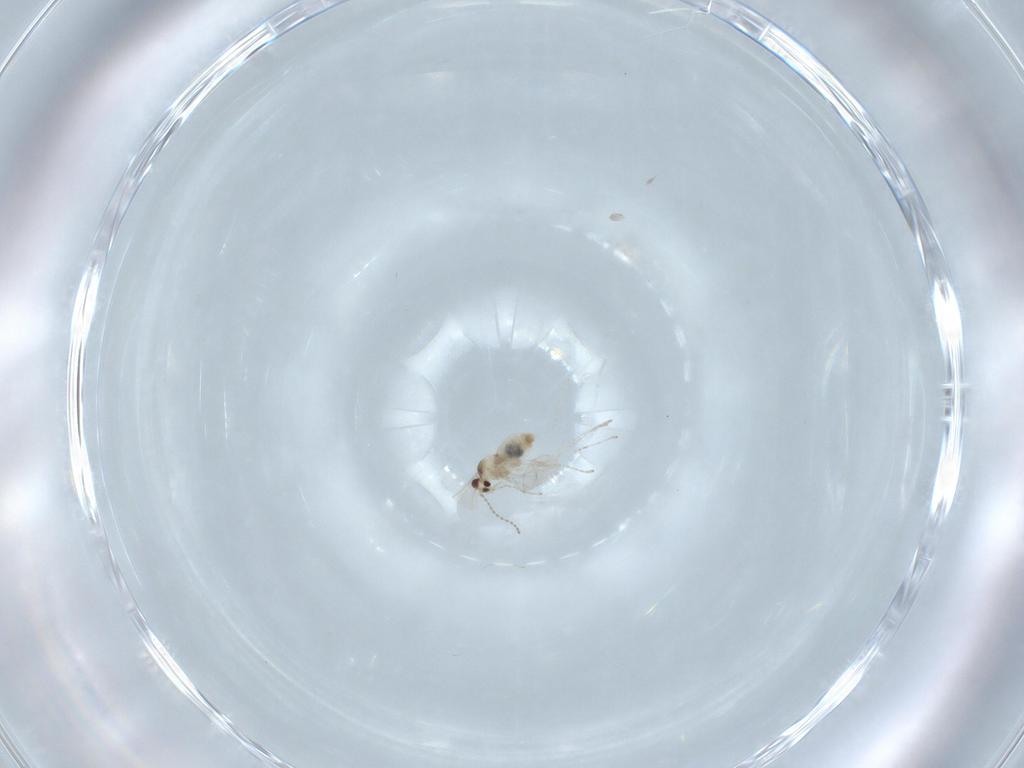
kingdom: Animalia
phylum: Arthropoda
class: Insecta
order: Diptera
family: Cecidomyiidae
